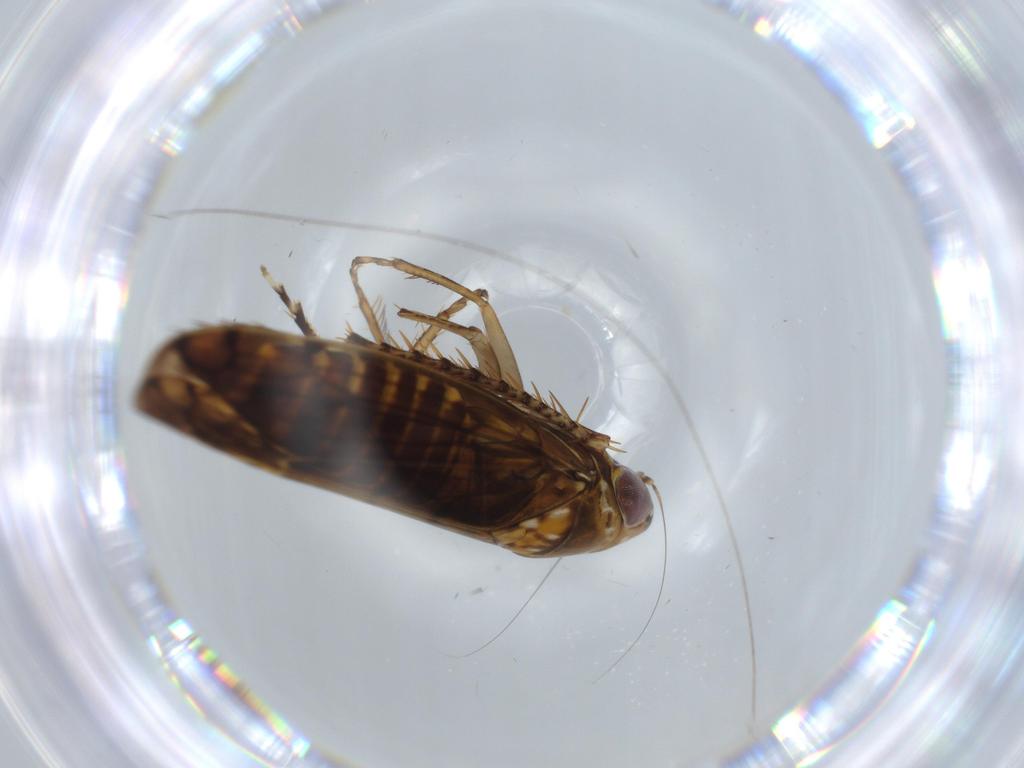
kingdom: Animalia
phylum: Arthropoda
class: Insecta
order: Hemiptera
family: Cicadellidae
